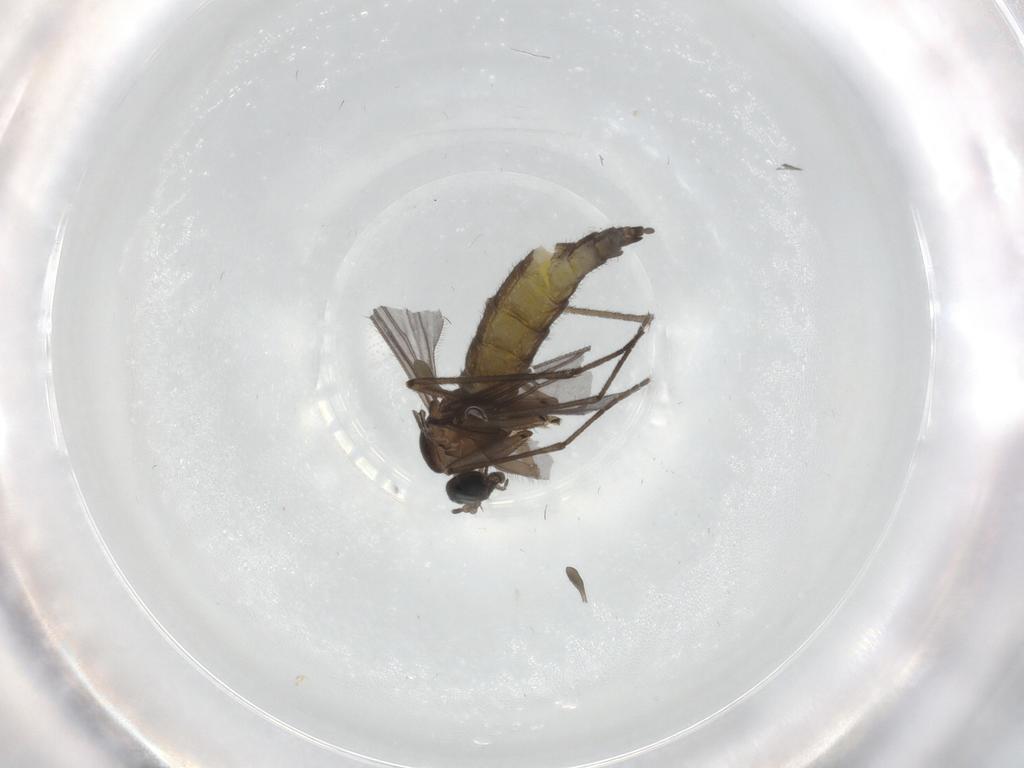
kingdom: Animalia
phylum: Arthropoda
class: Insecta
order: Diptera
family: Sciaridae
